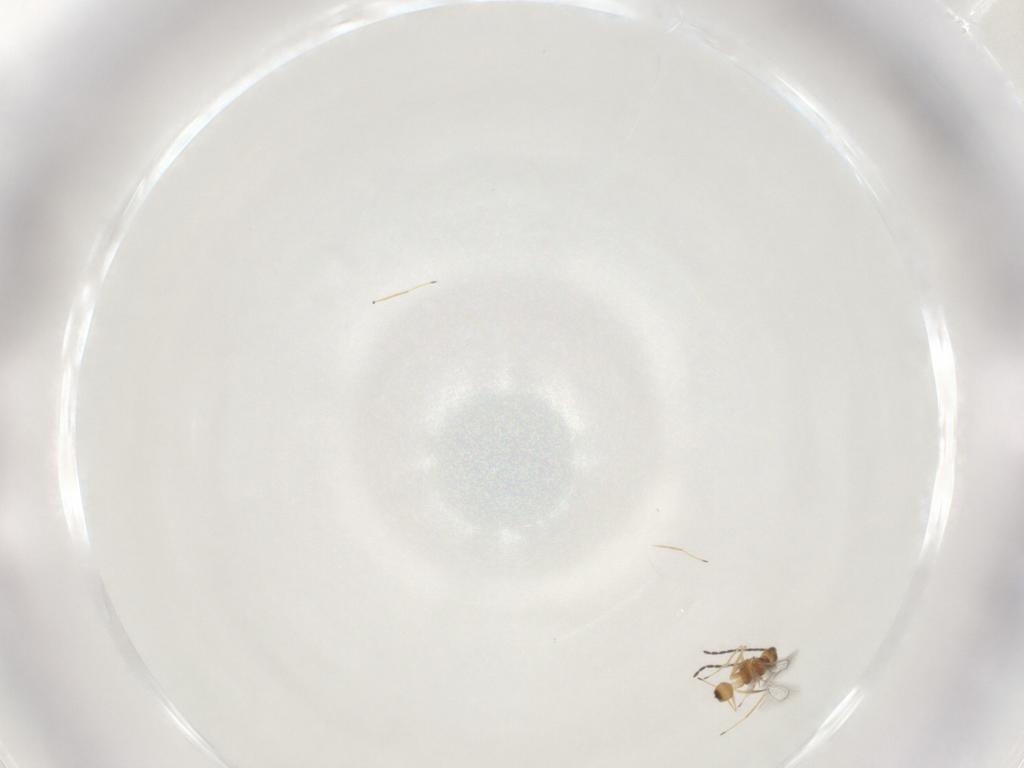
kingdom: Animalia
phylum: Arthropoda
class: Insecta
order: Hymenoptera
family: Mymaridae
